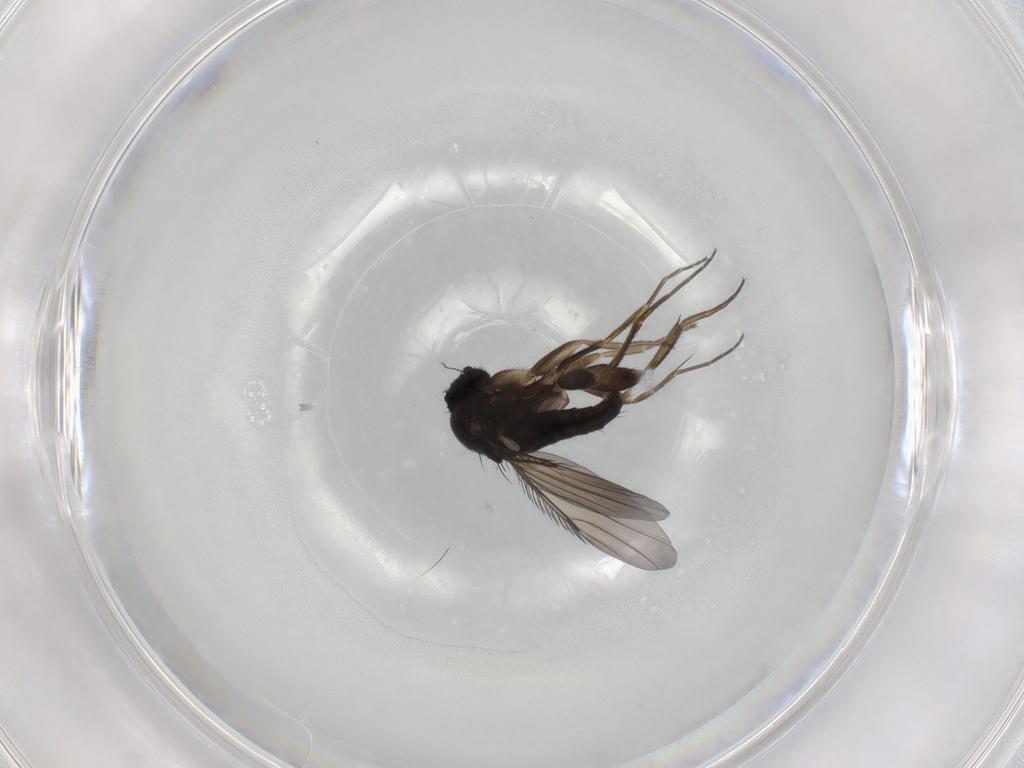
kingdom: Animalia
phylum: Arthropoda
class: Insecta
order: Diptera
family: Phoridae
